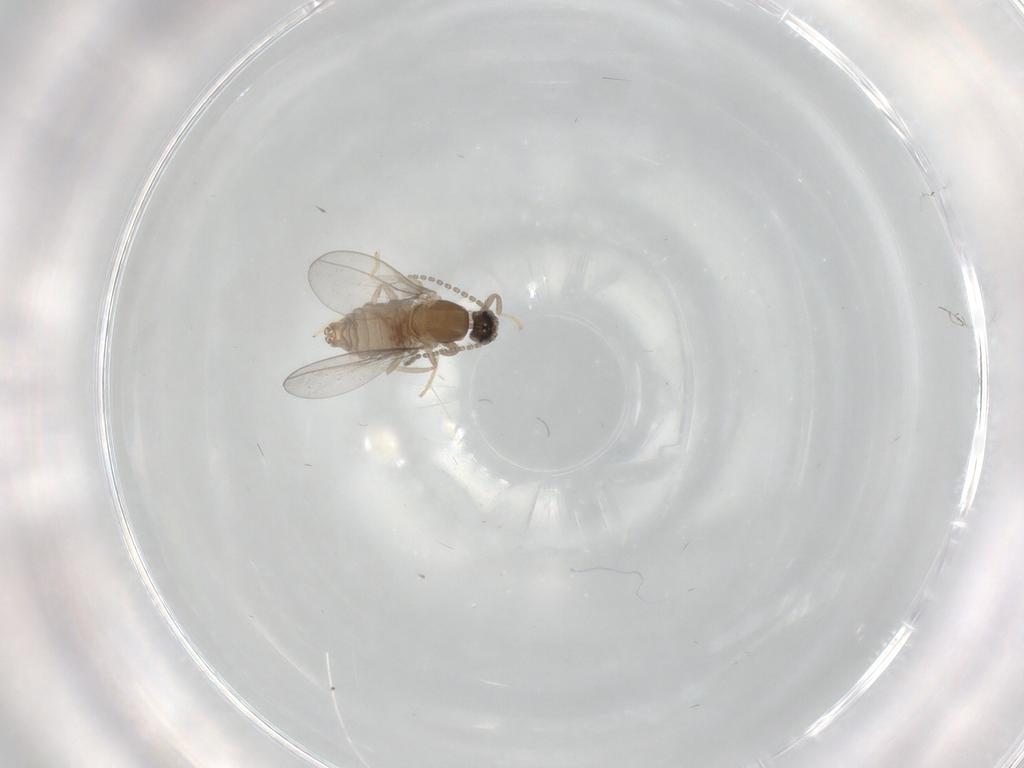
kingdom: Animalia
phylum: Arthropoda
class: Insecta
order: Diptera
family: Cecidomyiidae
